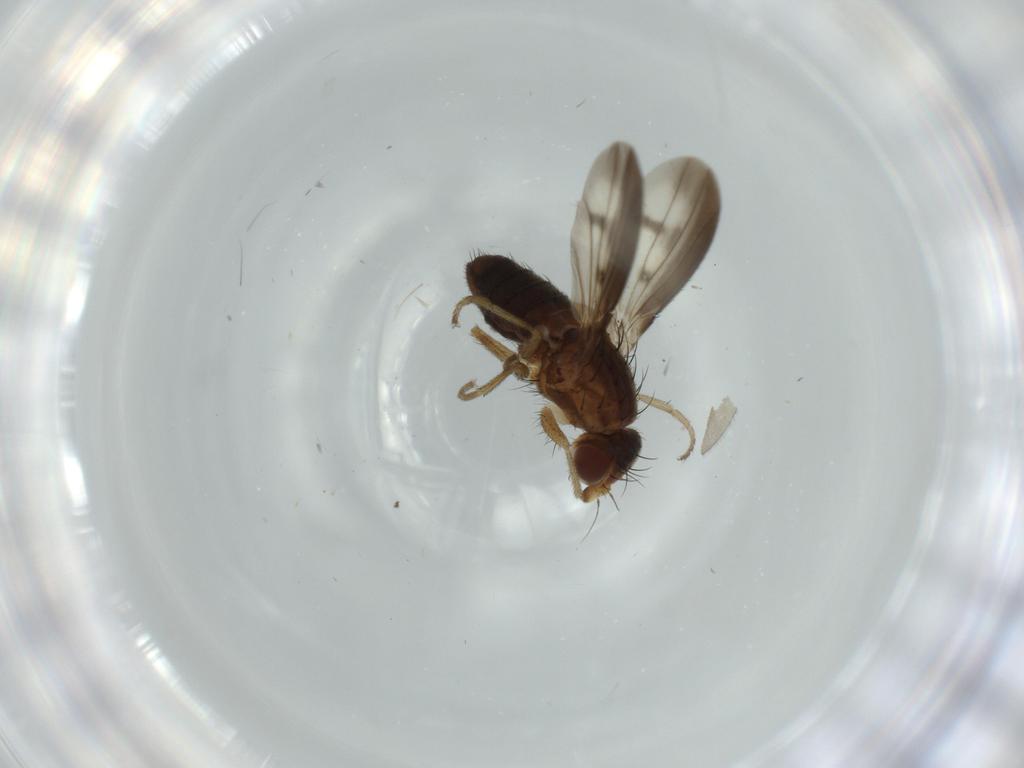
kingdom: Animalia
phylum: Arthropoda
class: Insecta
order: Diptera
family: Heleomyzidae
